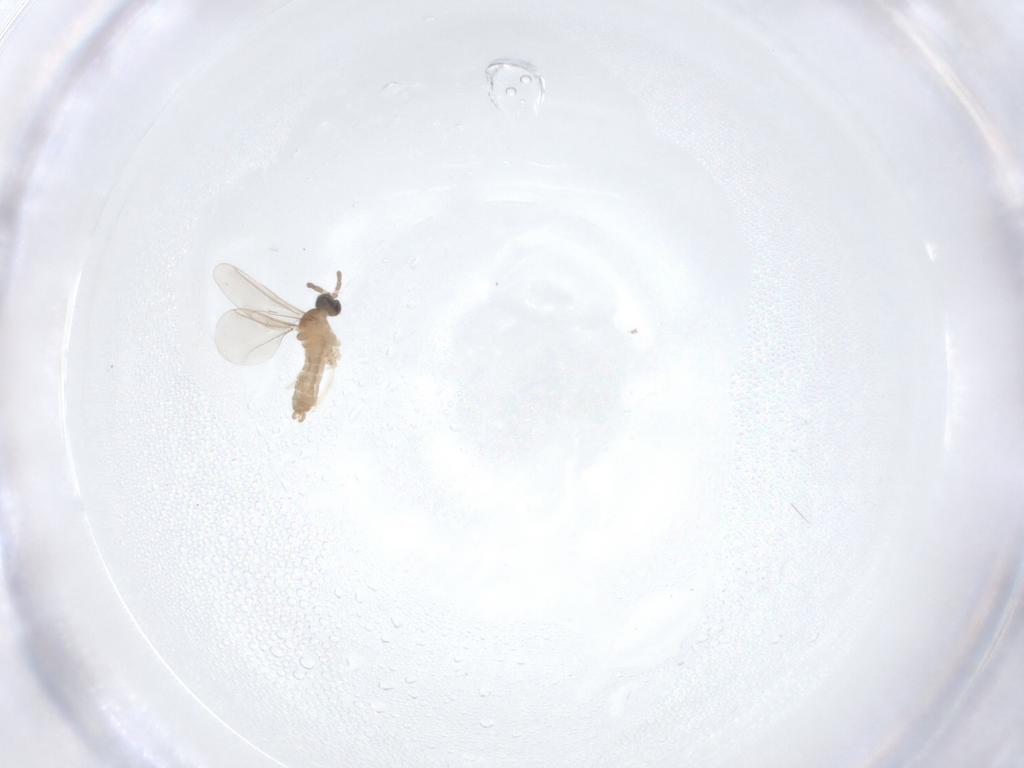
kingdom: Animalia
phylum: Arthropoda
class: Insecta
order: Diptera
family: Cecidomyiidae
